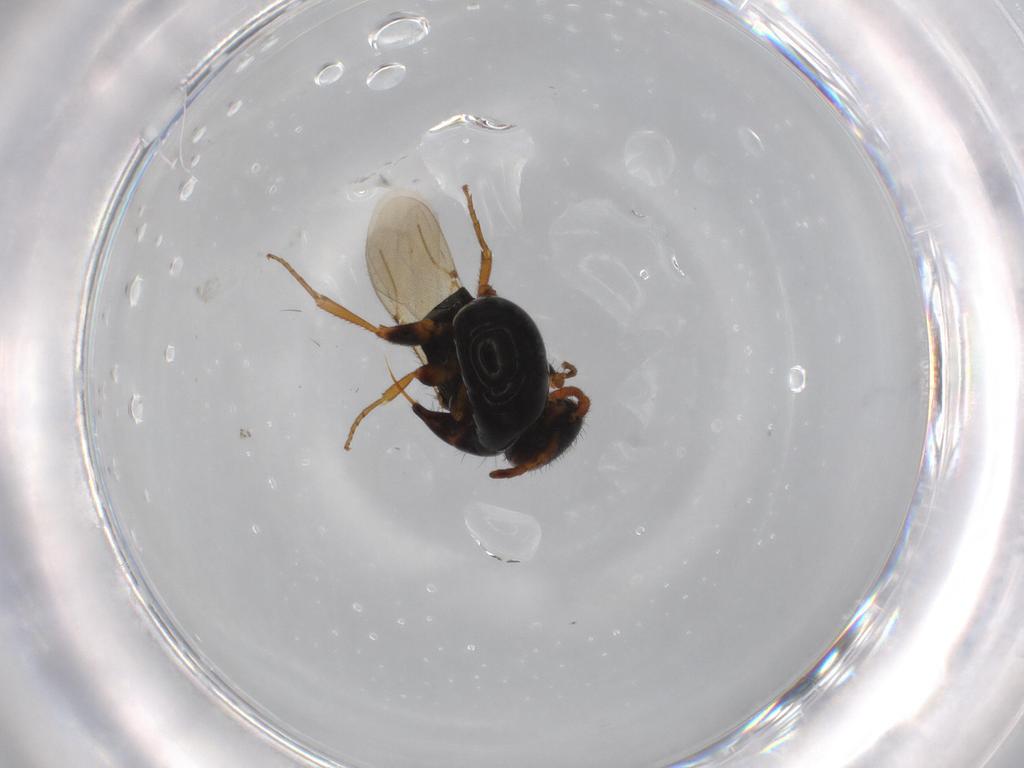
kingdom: Animalia
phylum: Arthropoda
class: Insecta
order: Hymenoptera
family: Bethylidae
